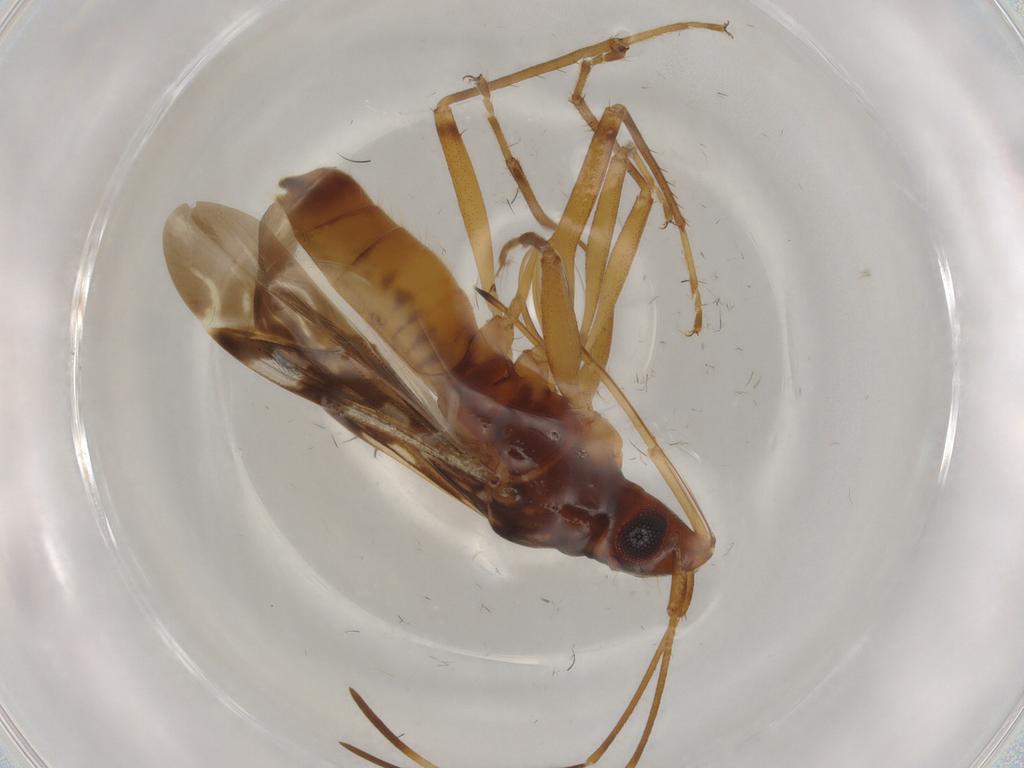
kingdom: Animalia
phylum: Arthropoda
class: Insecta
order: Hemiptera
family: Rhyparochromidae
